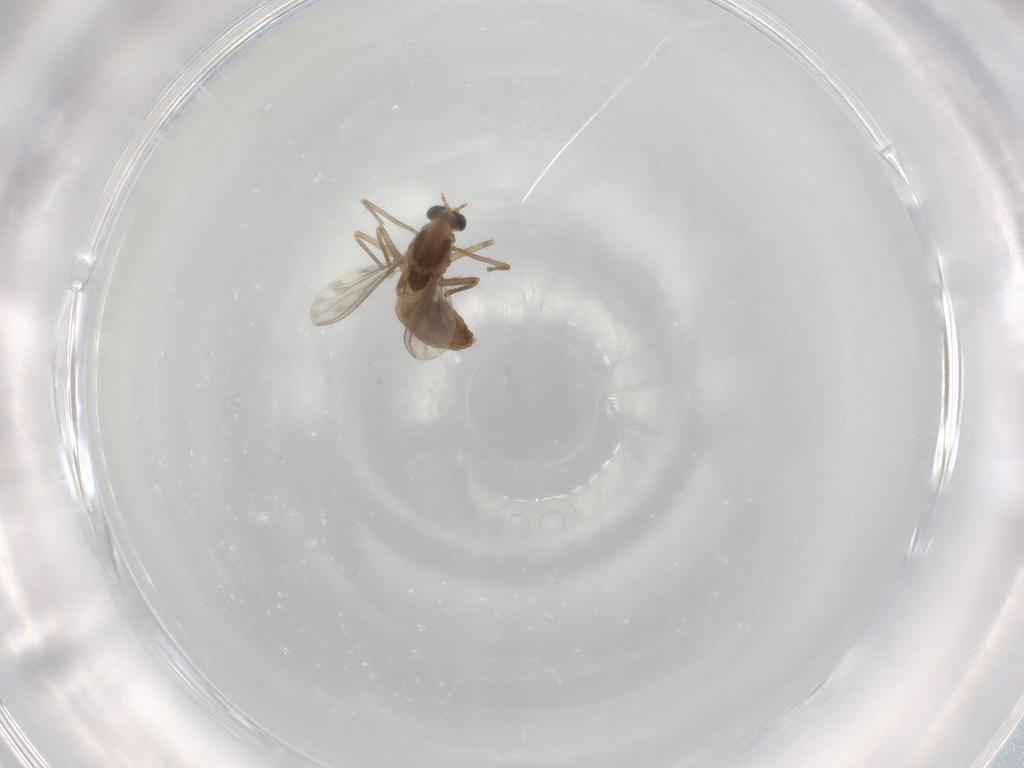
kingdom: Animalia
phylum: Arthropoda
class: Insecta
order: Diptera
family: Chironomidae
